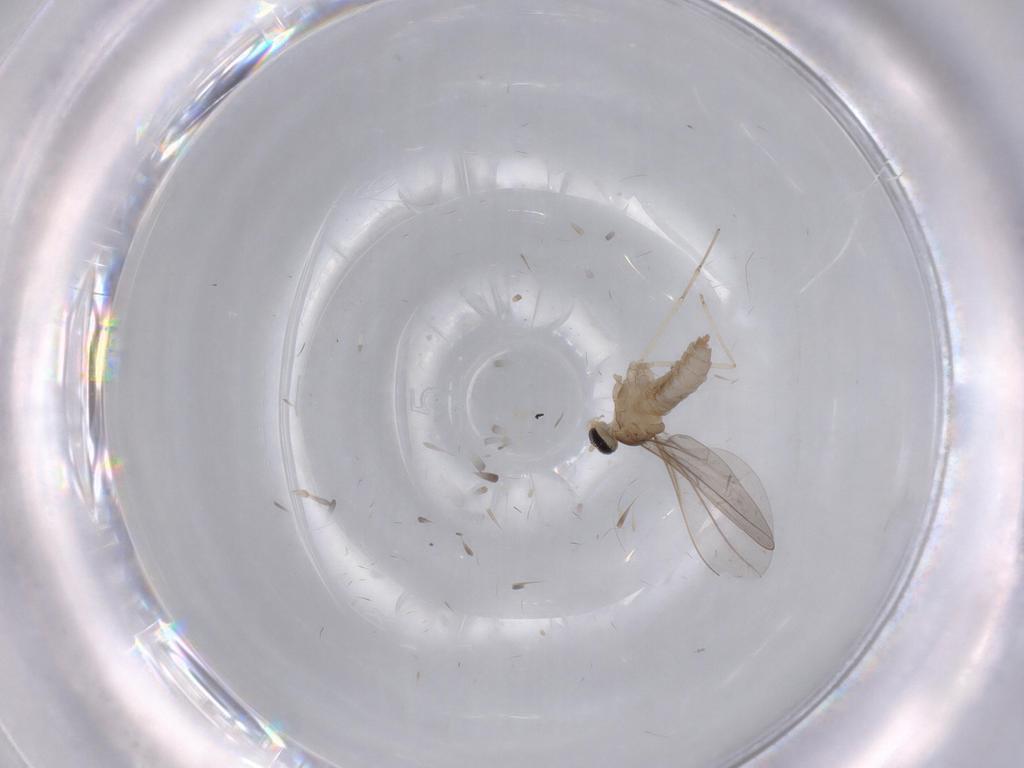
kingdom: Animalia
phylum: Arthropoda
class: Insecta
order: Diptera
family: Cecidomyiidae
